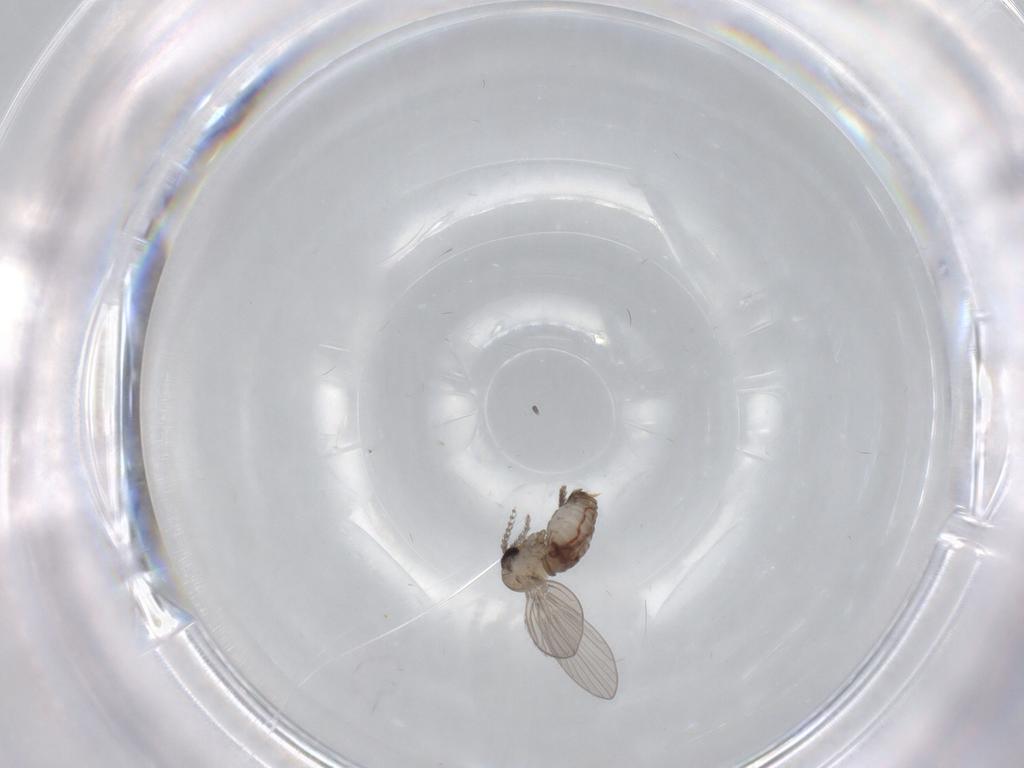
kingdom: Animalia
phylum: Arthropoda
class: Insecta
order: Diptera
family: Psychodidae
